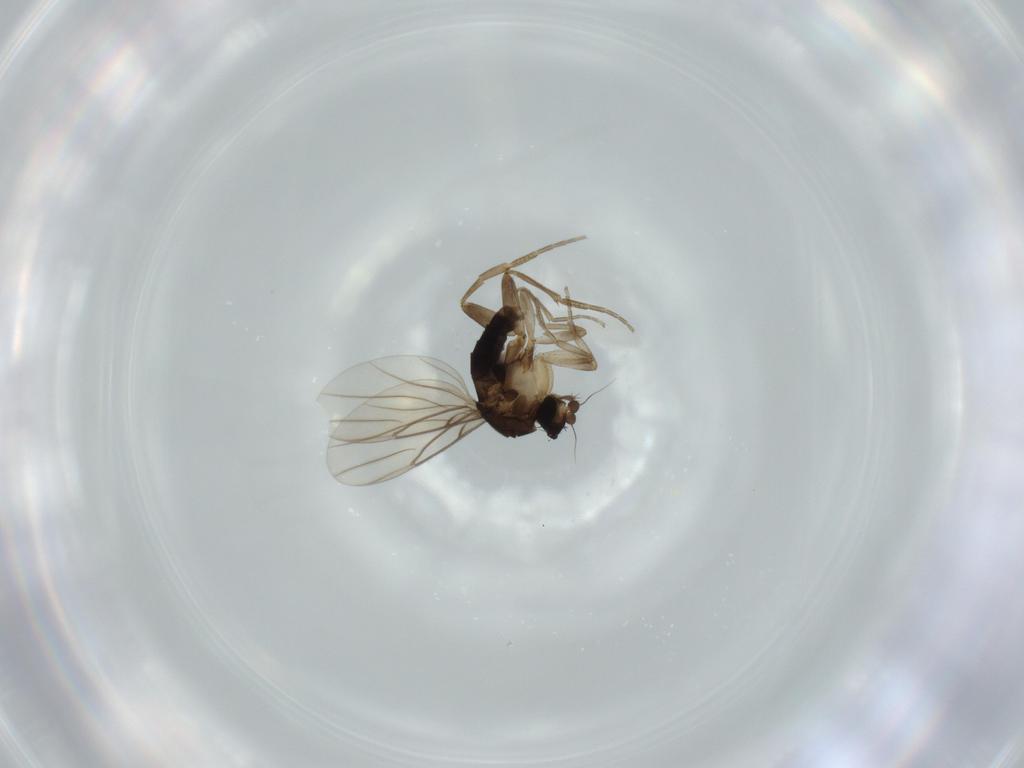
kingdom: Animalia
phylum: Arthropoda
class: Insecta
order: Diptera
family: Phoridae
